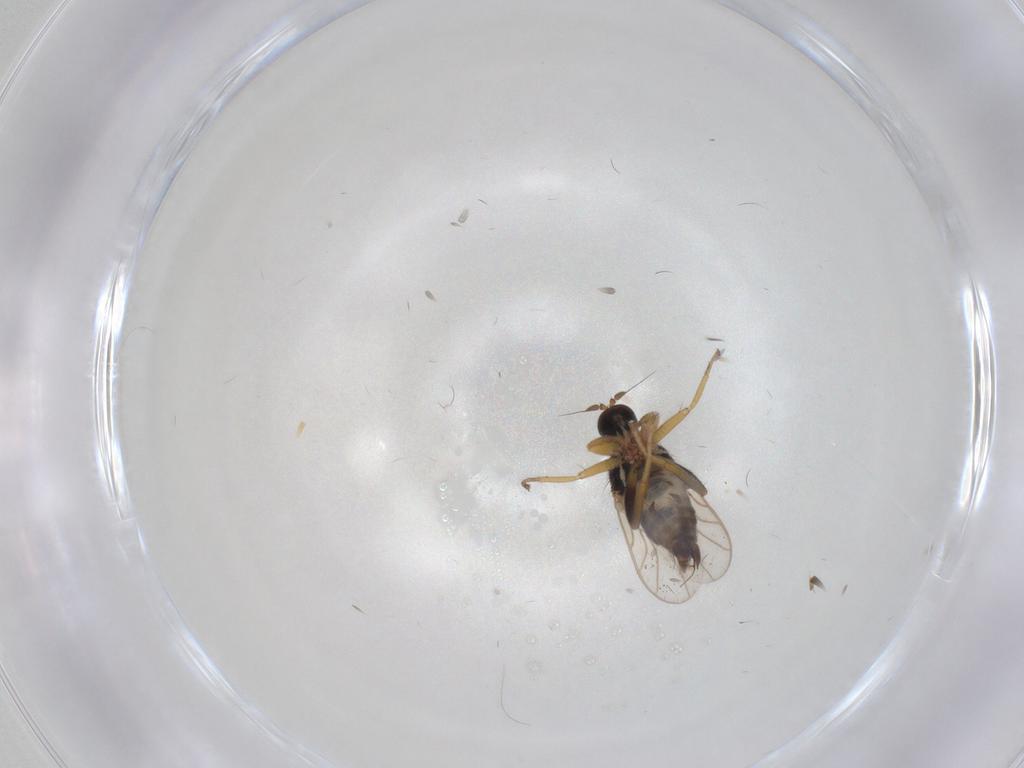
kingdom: Animalia
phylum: Arthropoda
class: Insecta
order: Diptera
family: Hybotidae
